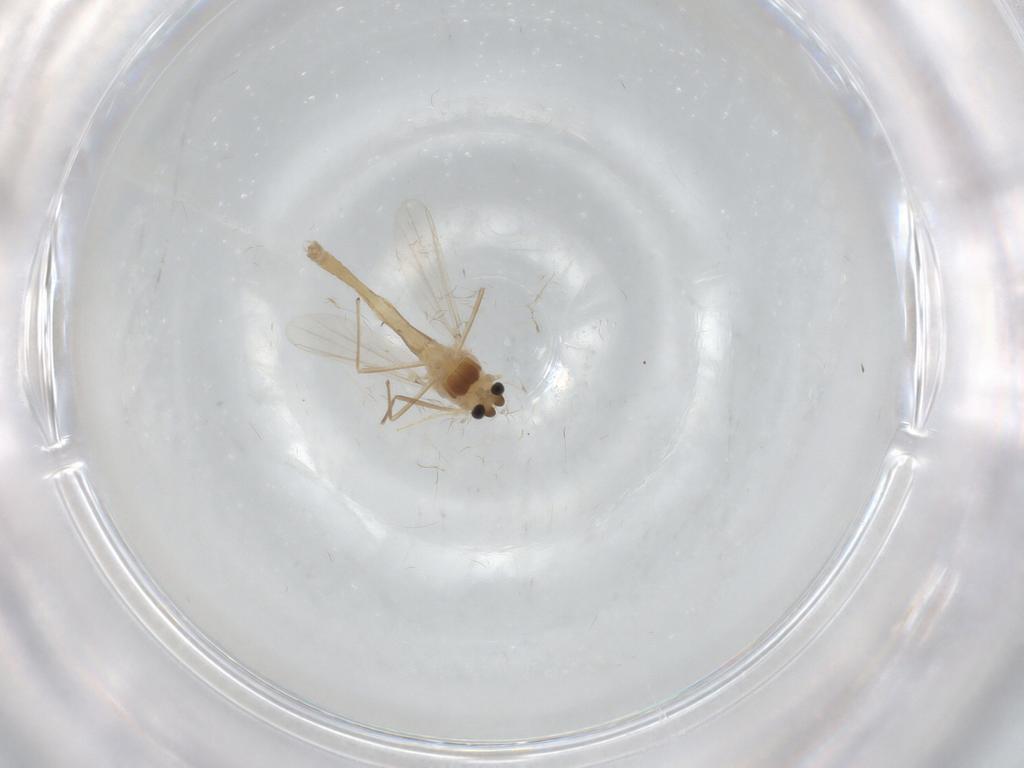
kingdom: Animalia
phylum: Arthropoda
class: Insecta
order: Diptera
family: Chironomidae
